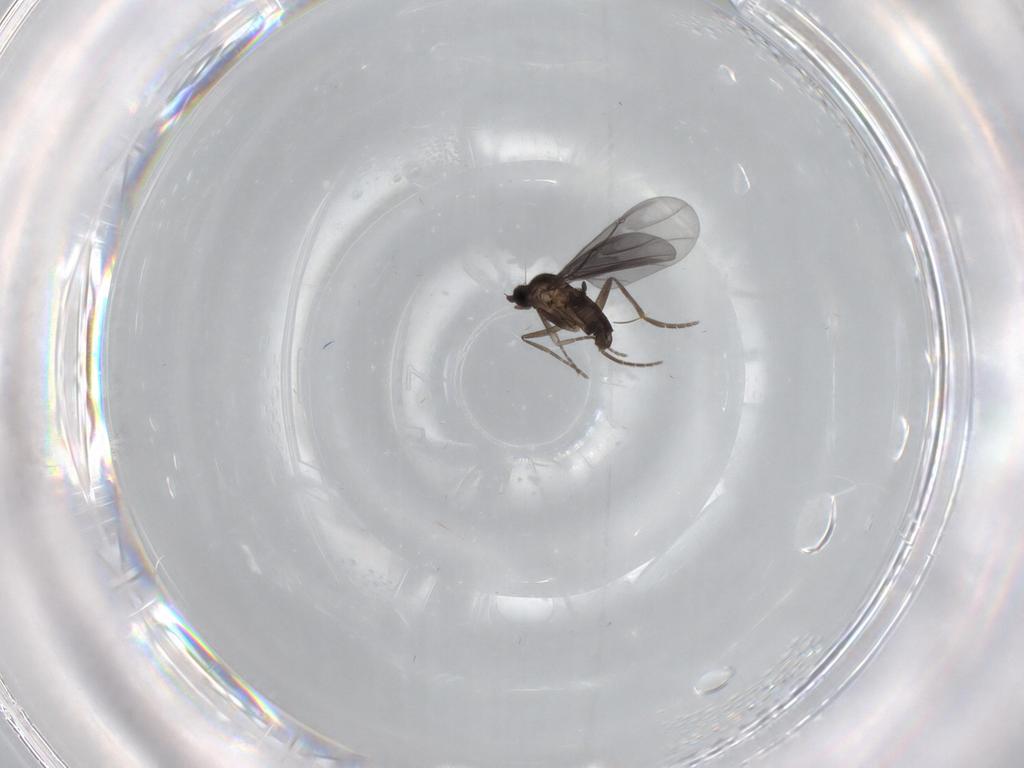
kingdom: Animalia
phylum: Arthropoda
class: Insecta
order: Diptera
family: Phoridae
